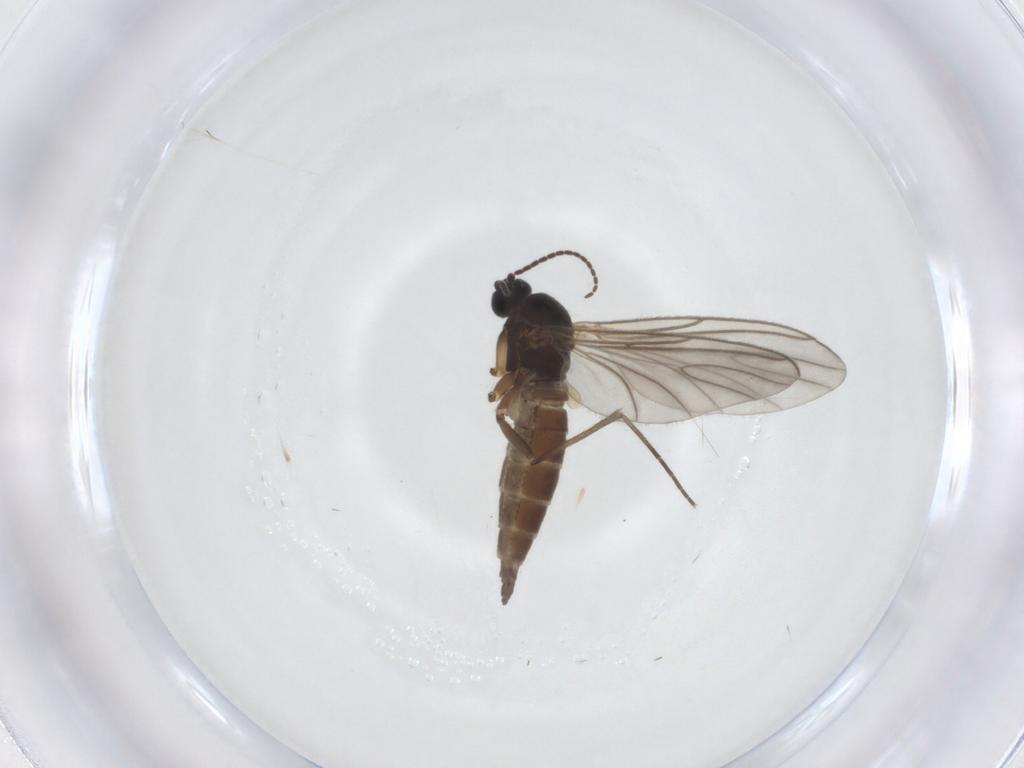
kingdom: Animalia
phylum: Arthropoda
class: Insecta
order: Diptera
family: Sciaridae
